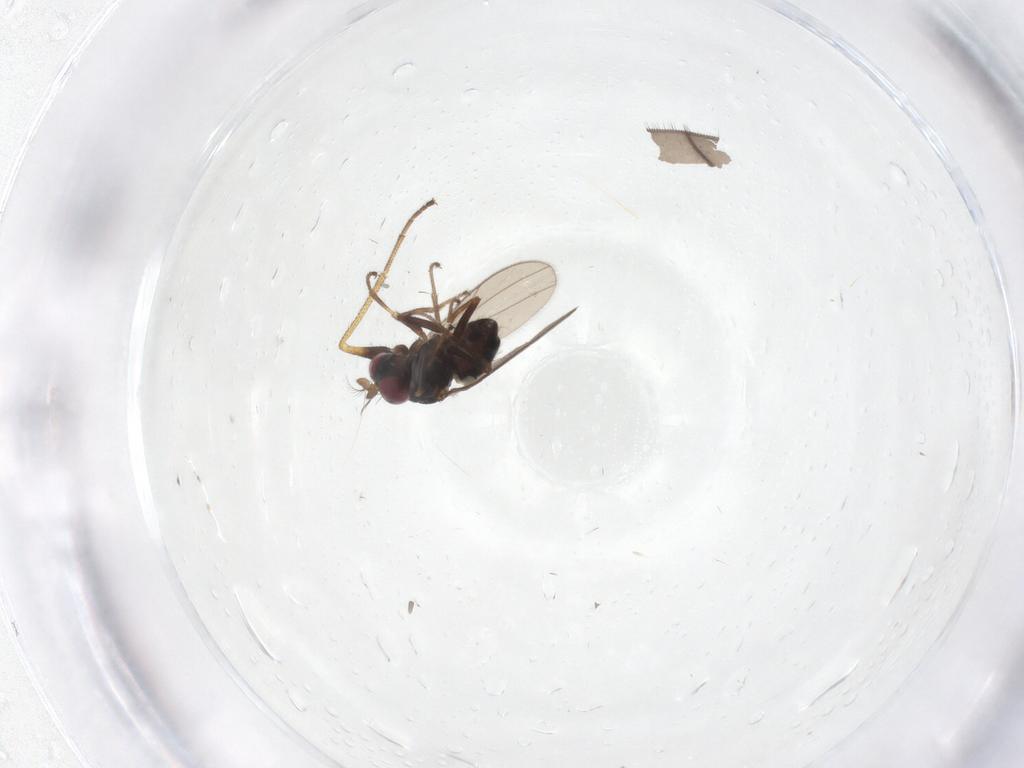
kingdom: Animalia
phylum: Arthropoda
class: Insecta
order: Diptera
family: Ephydridae
